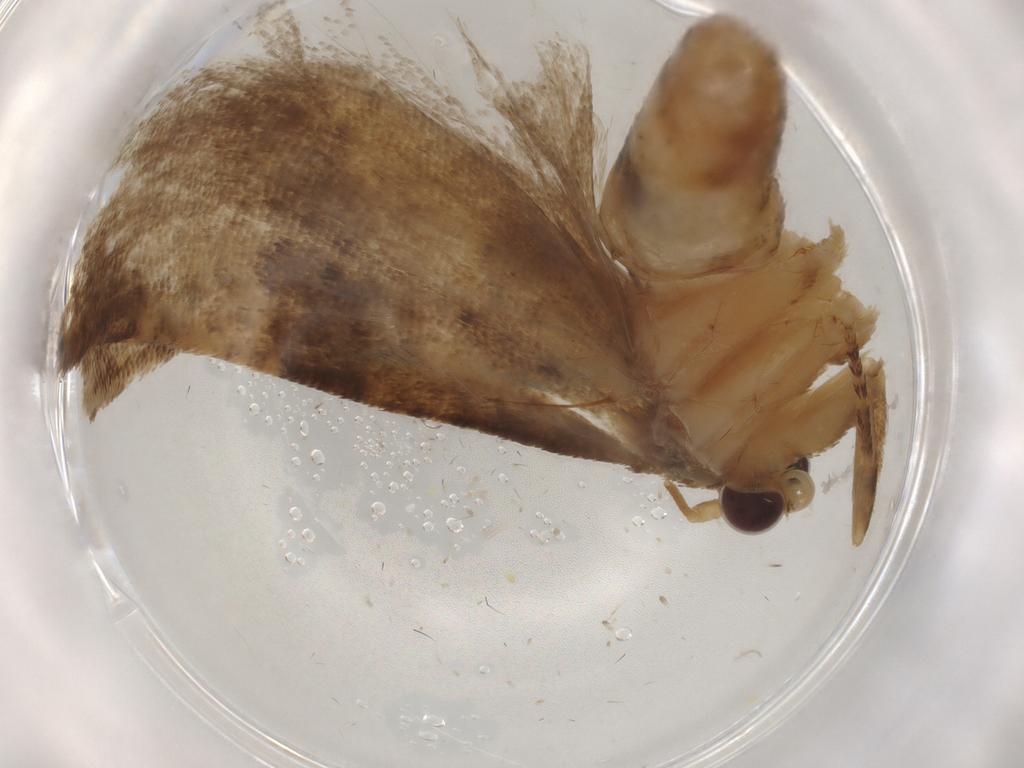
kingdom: Animalia
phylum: Arthropoda
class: Insecta
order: Lepidoptera
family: Tortricidae
